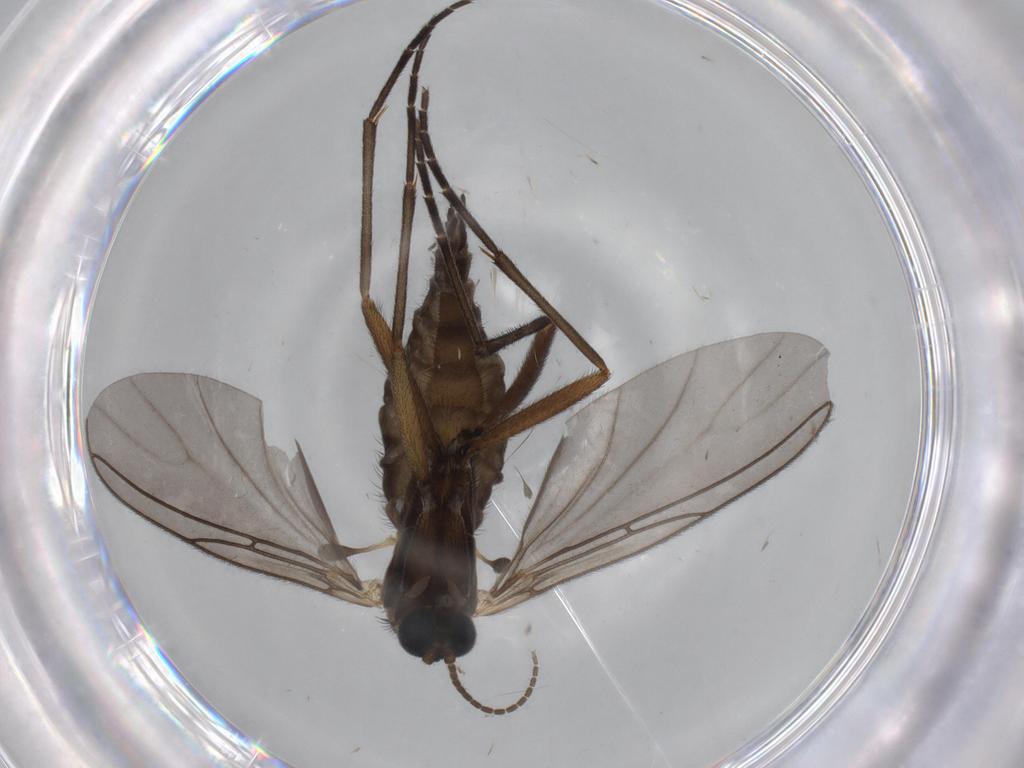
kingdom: Animalia
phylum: Arthropoda
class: Insecta
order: Diptera
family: Sciaridae
